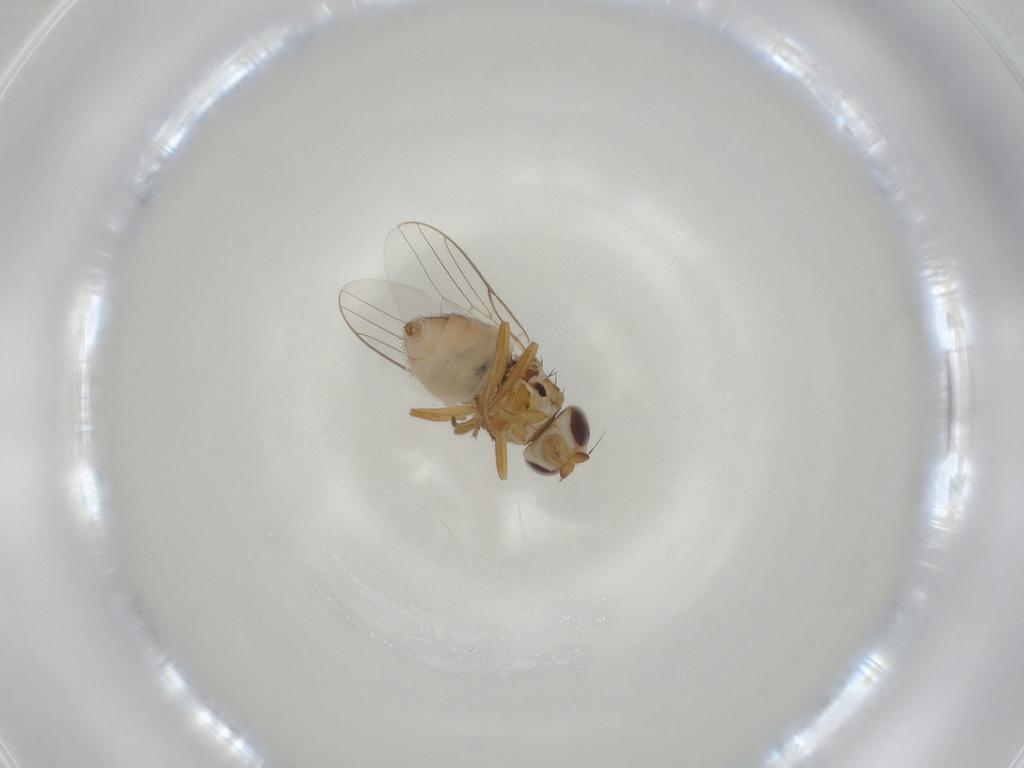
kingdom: Animalia
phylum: Arthropoda
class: Insecta
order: Diptera
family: Chloropidae
